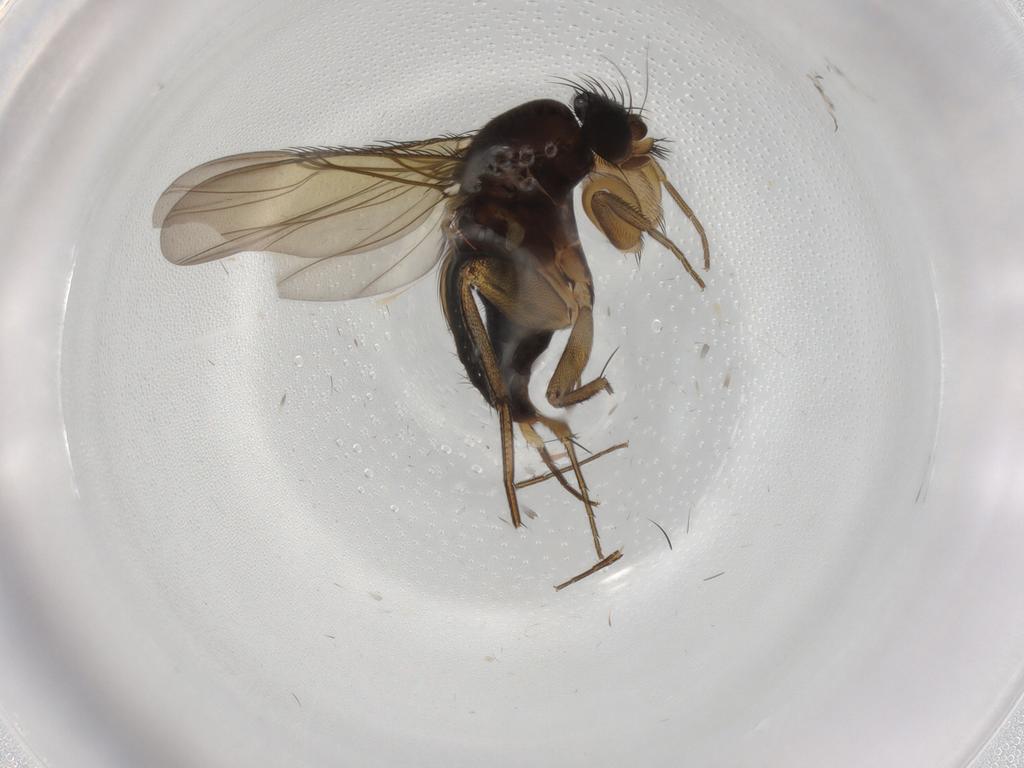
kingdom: Animalia
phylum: Arthropoda
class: Insecta
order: Diptera
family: Phoridae
